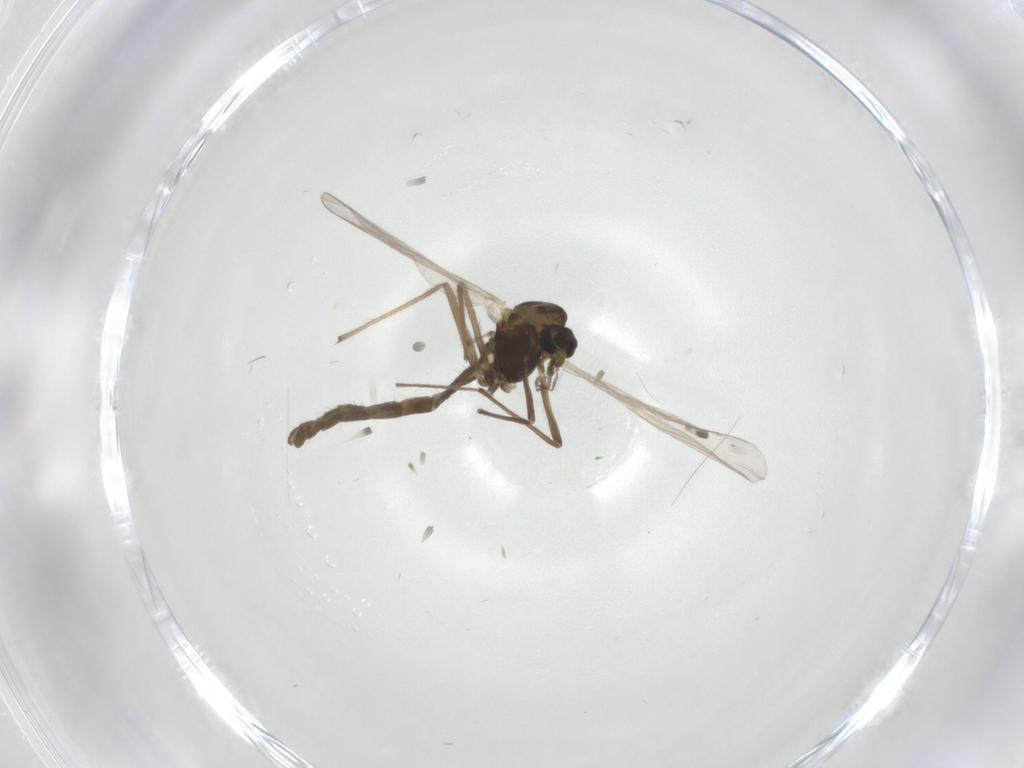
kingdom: Animalia
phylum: Arthropoda
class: Insecta
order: Diptera
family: Chironomidae
